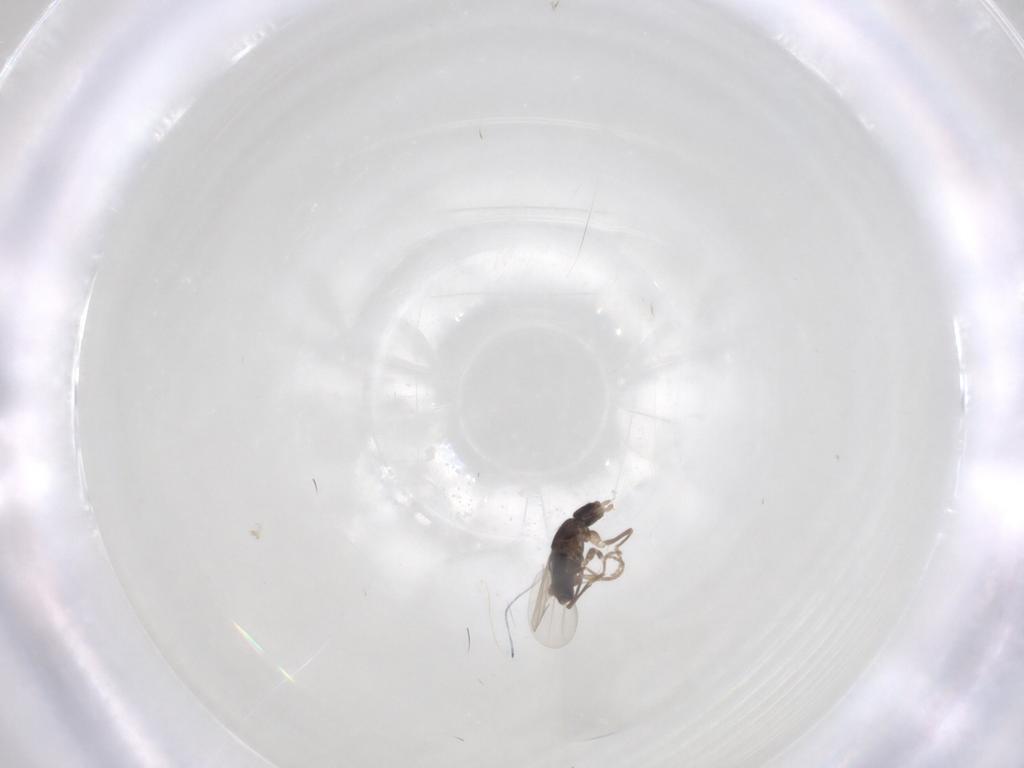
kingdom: Animalia
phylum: Arthropoda
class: Insecta
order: Diptera
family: Phoridae
